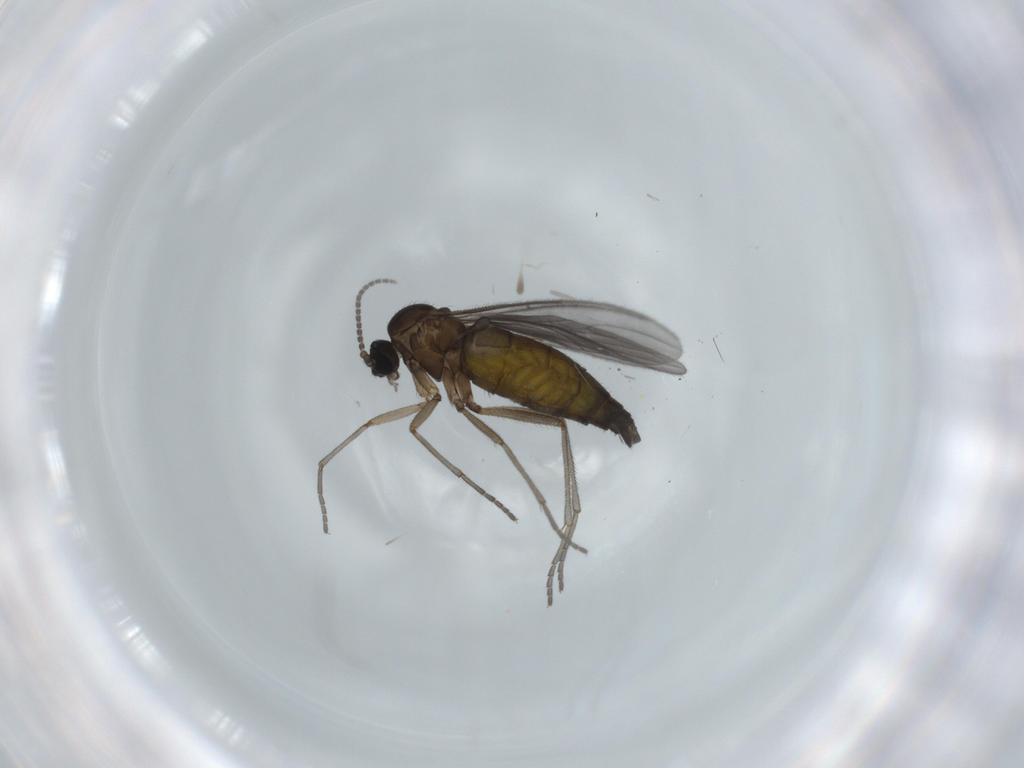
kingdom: Animalia
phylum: Arthropoda
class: Insecta
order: Diptera
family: Sciaridae
